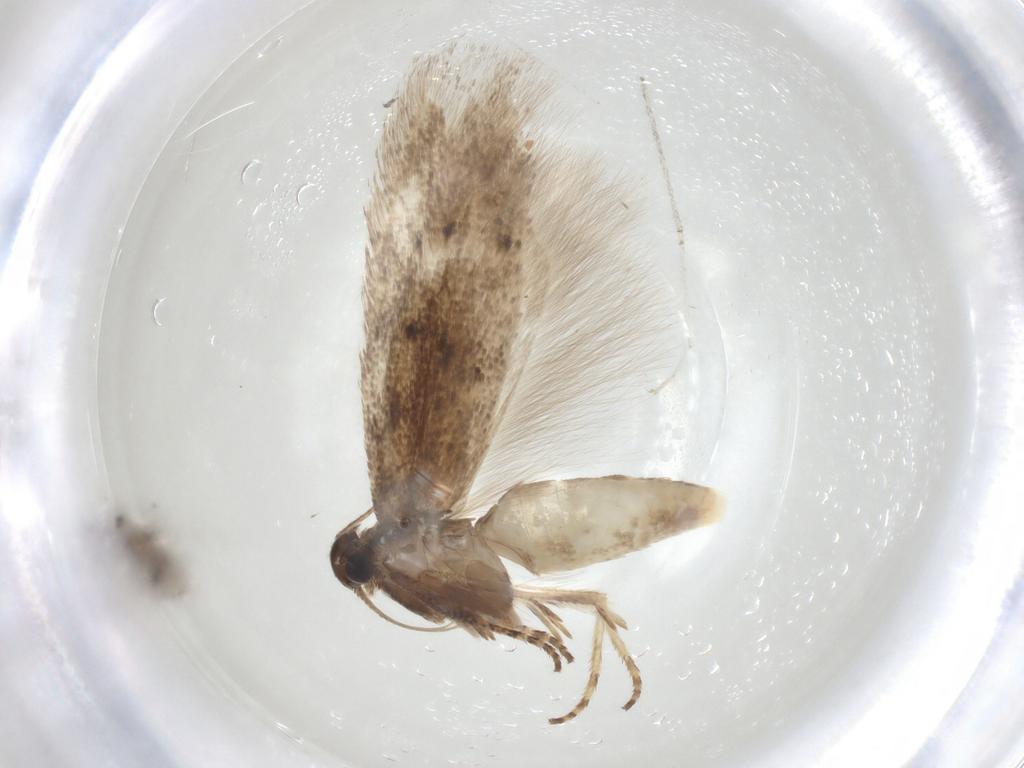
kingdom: Animalia
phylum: Arthropoda
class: Insecta
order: Lepidoptera
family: Gelechiidae
